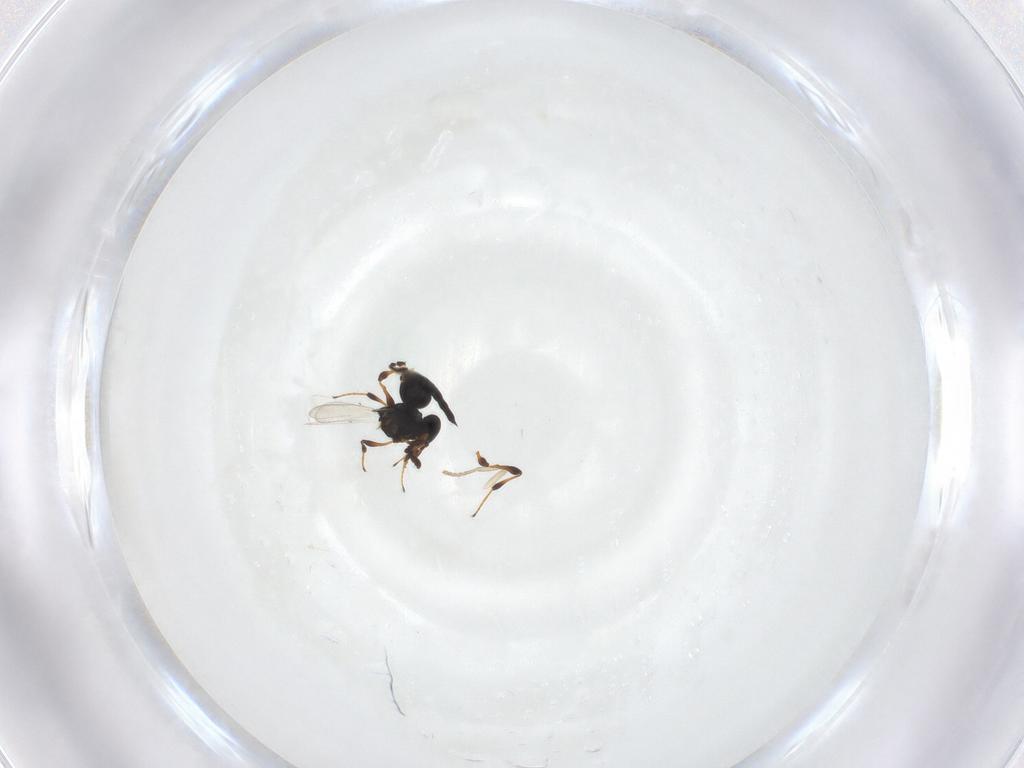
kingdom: Animalia
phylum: Arthropoda
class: Insecta
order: Hymenoptera
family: Platygastridae
